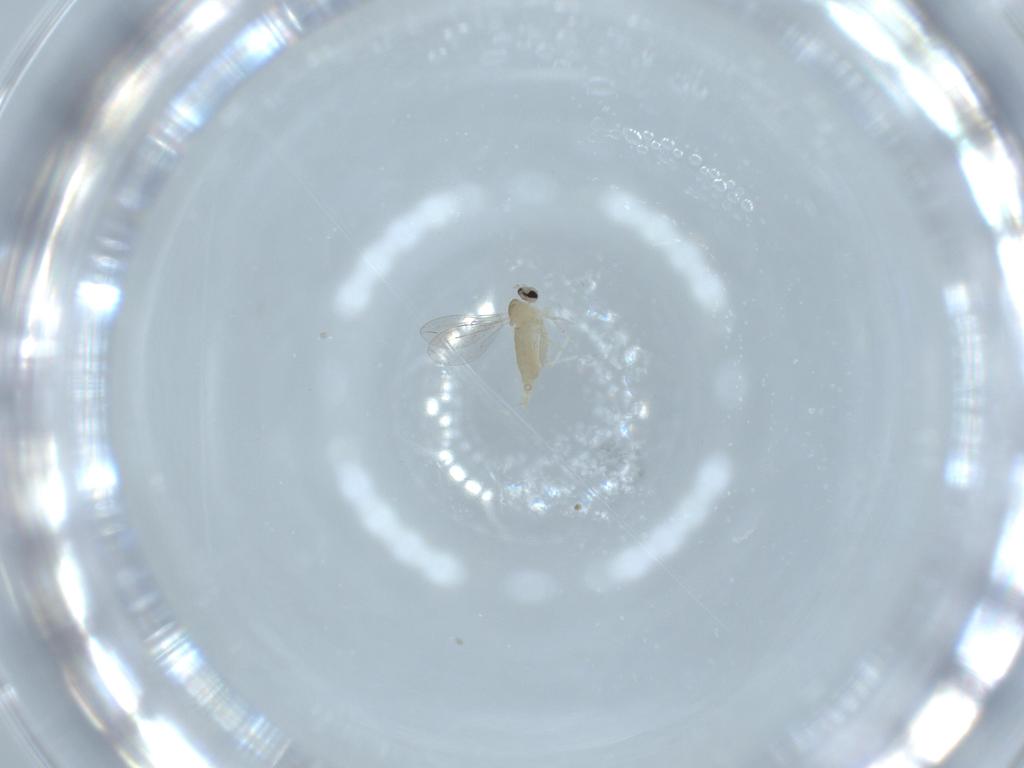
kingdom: Animalia
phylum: Arthropoda
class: Insecta
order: Diptera
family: Cecidomyiidae
